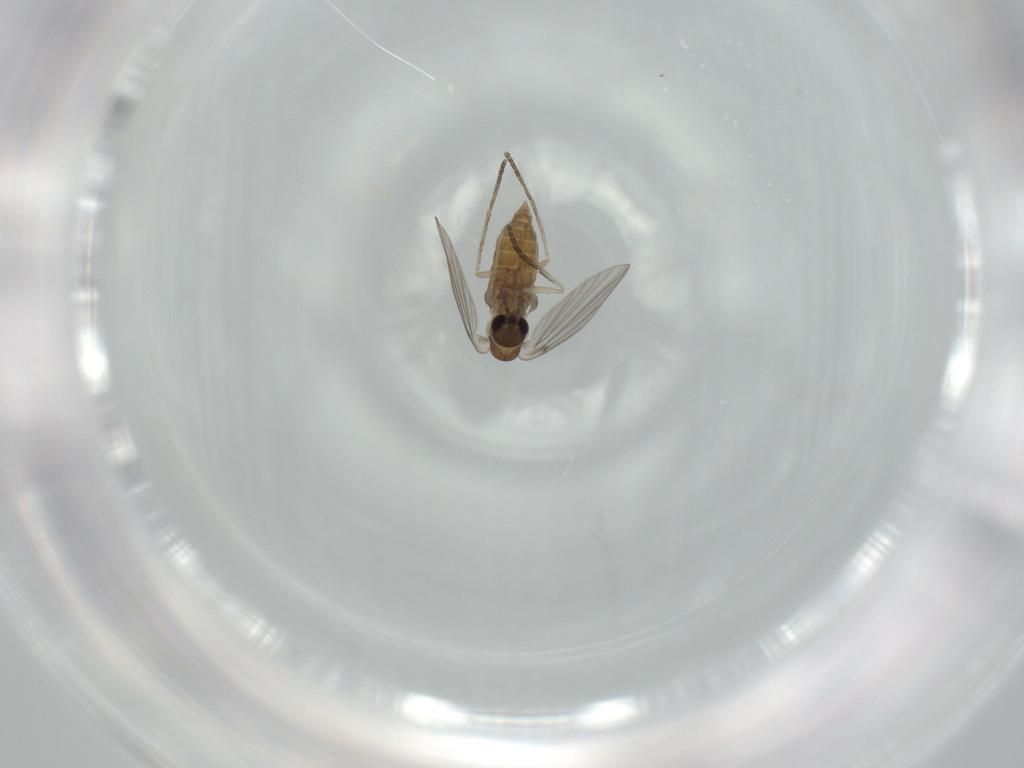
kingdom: Animalia
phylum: Arthropoda
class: Insecta
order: Diptera
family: Chironomidae
